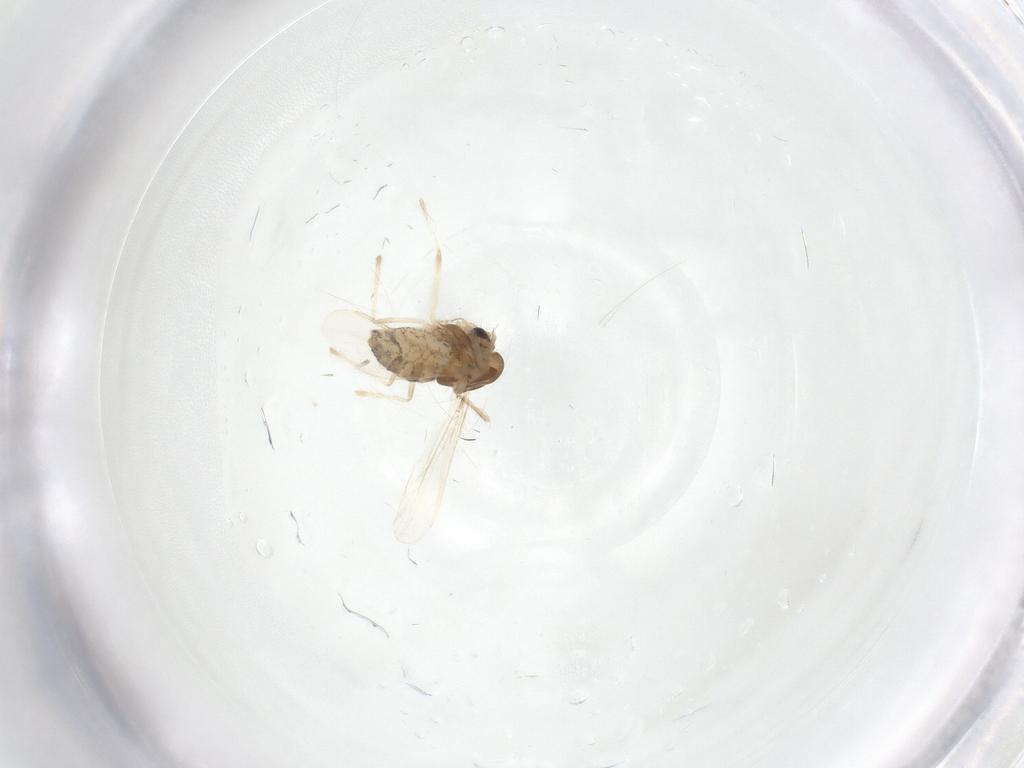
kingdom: Animalia
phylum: Arthropoda
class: Insecta
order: Diptera
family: Chironomidae
